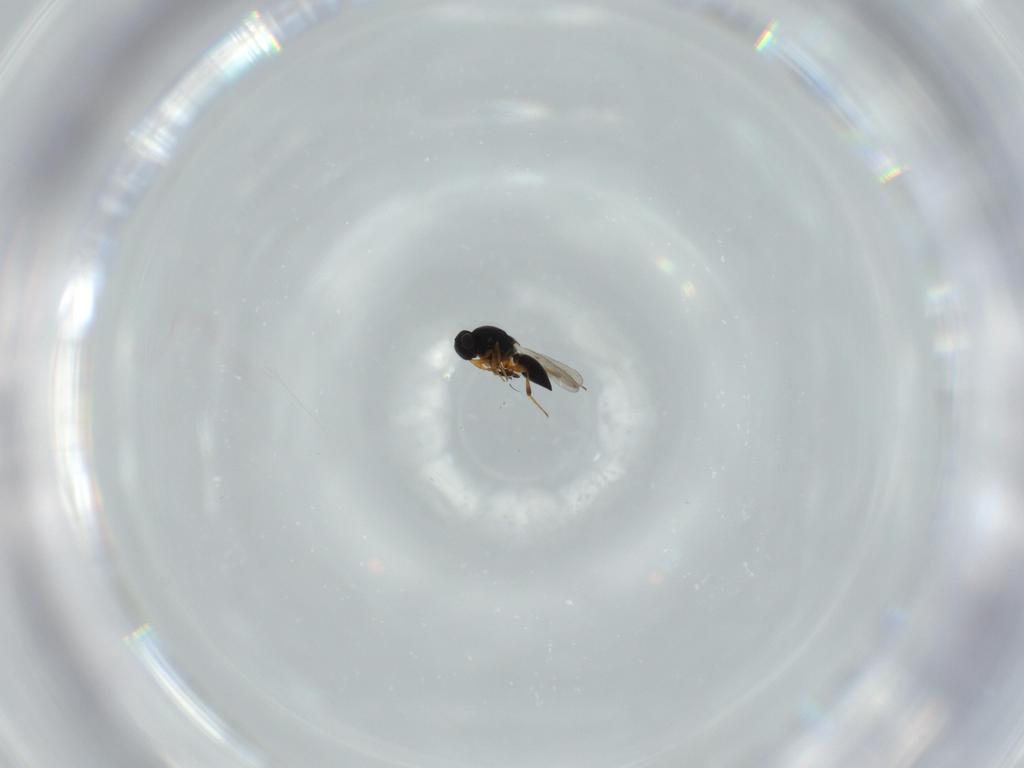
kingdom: Animalia
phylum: Arthropoda
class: Insecta
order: Hymenoptera
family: Platygastridae
